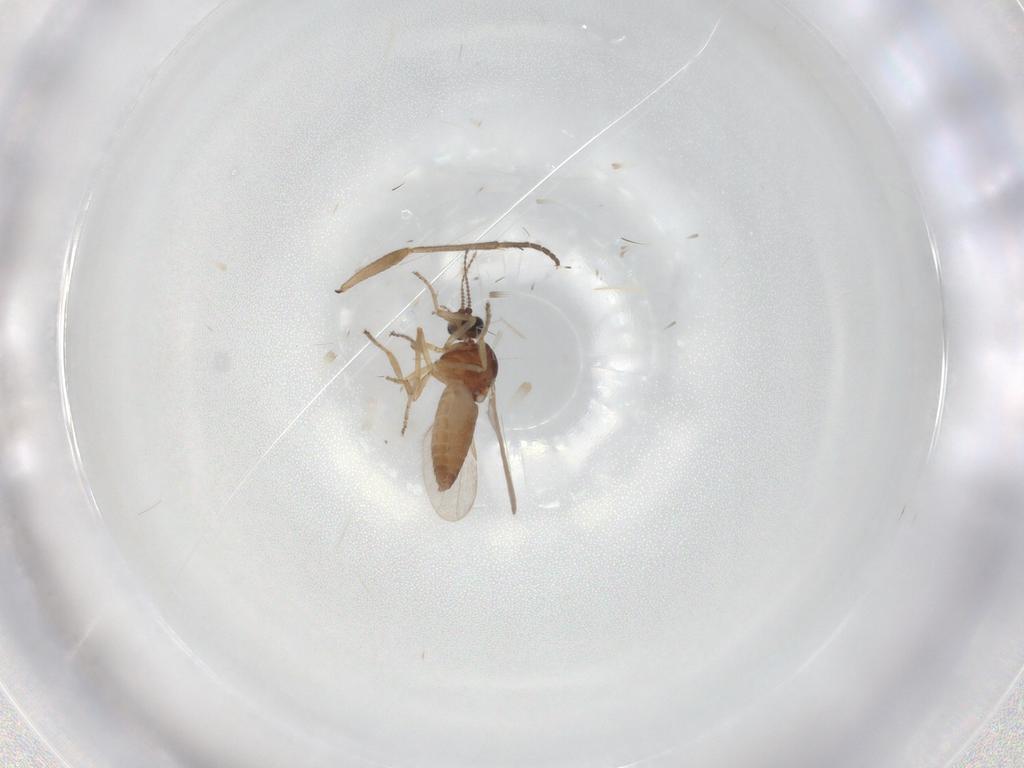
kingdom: Animalia
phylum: Arthropoda
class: Insecta
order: Diptera
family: Sciaridae
